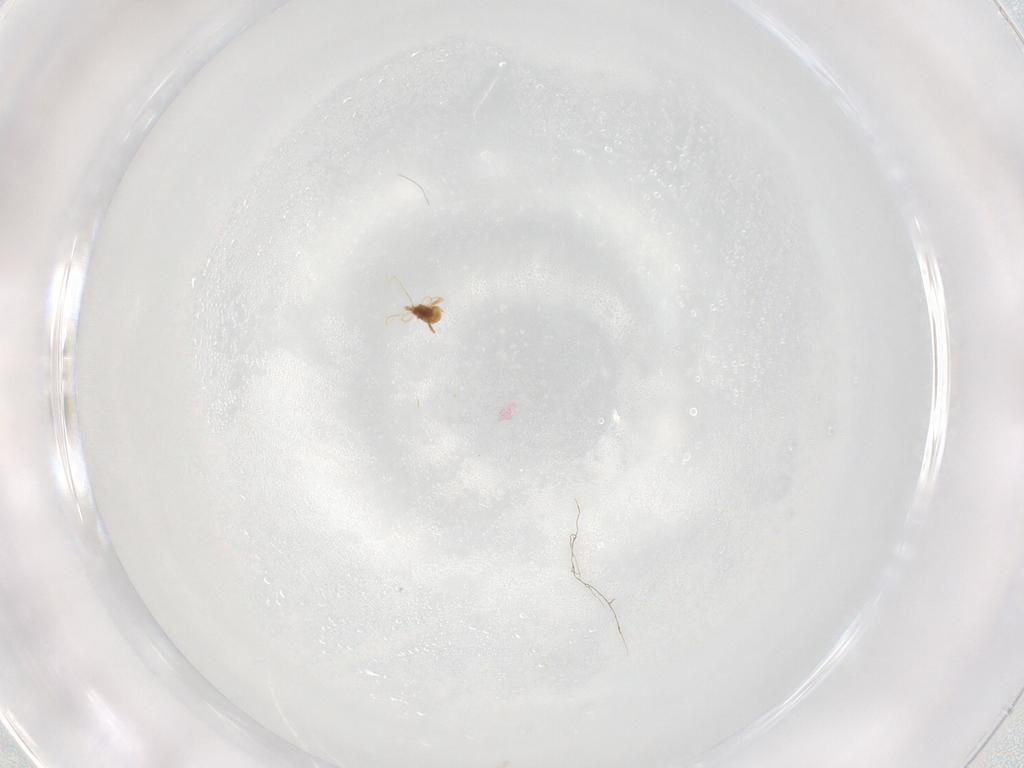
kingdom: Animalia
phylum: Arthropoda
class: Arachnida
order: Trombidiformes
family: Eupodidae
